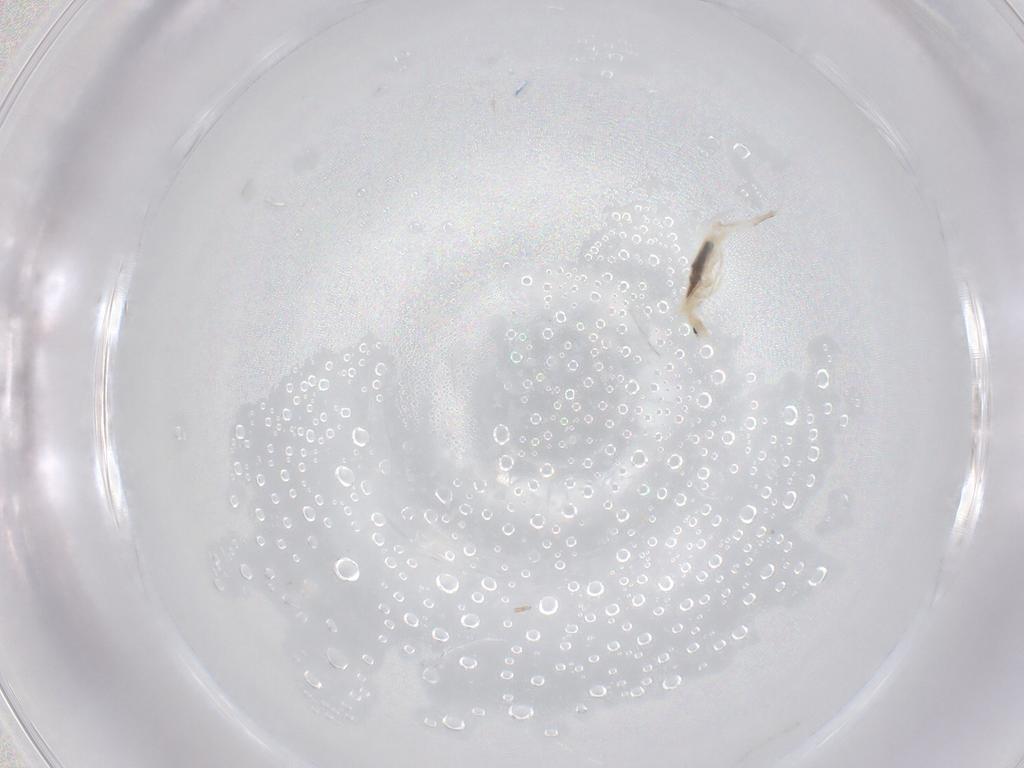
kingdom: Animalia
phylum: Arthropoda
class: Collembola
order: Entomobryomorpha
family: Entomobryidae
